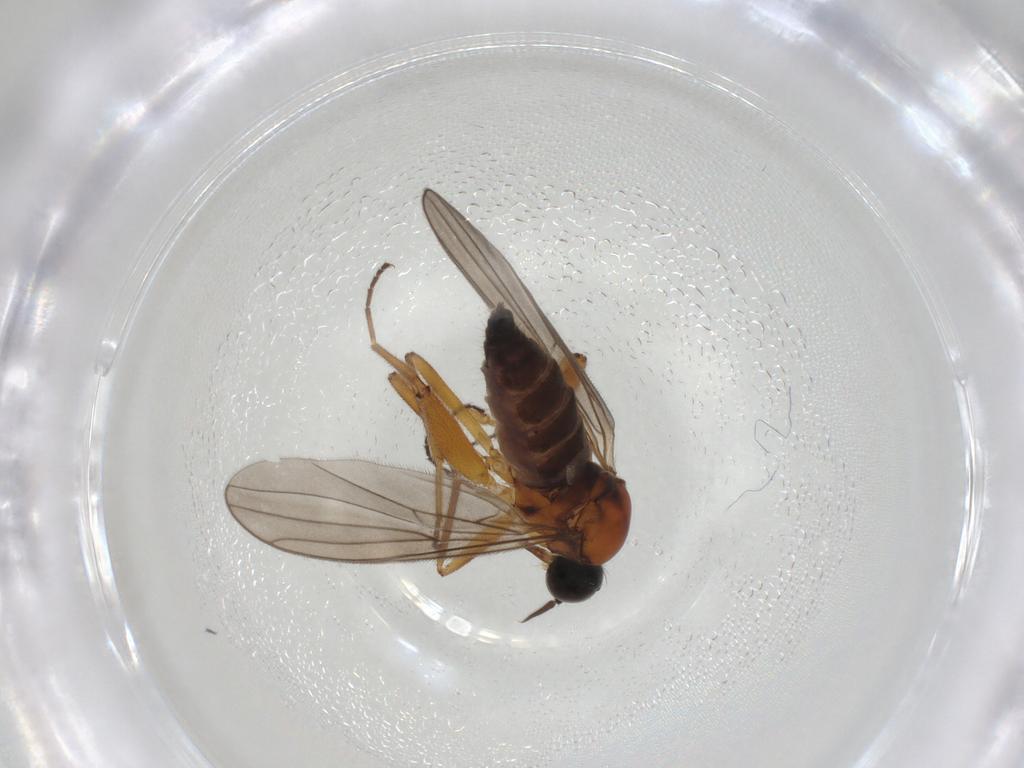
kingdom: Animalia
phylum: Arthropoda
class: Insecta
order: Diptera
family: Hybotidae
